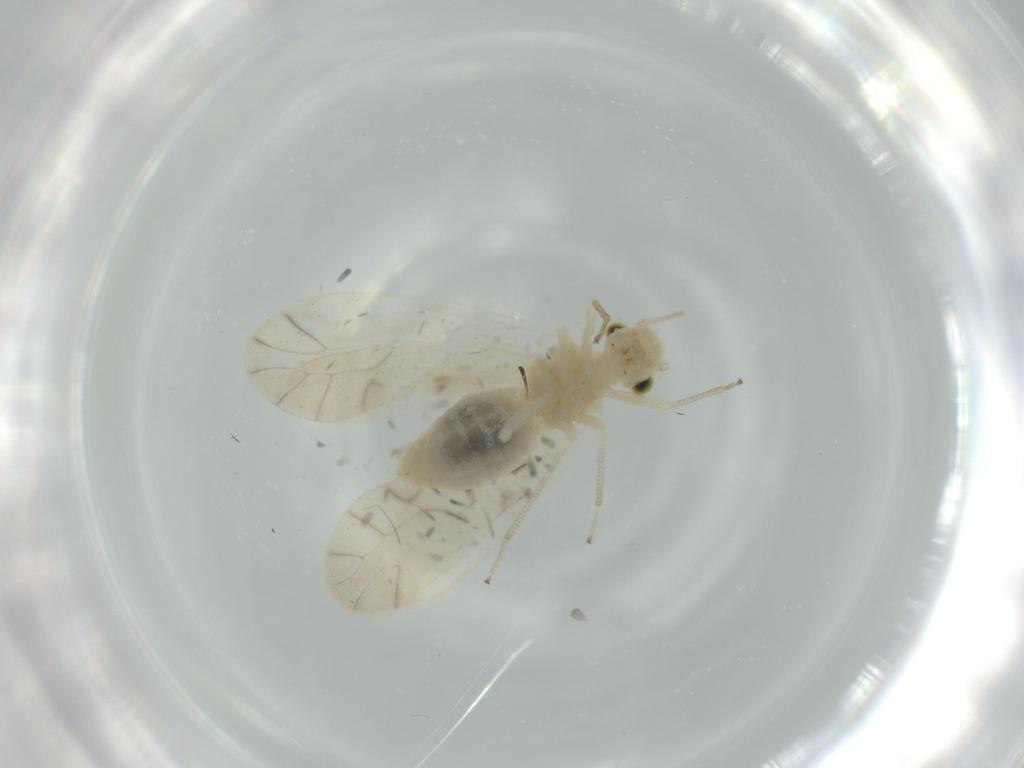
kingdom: Animalia
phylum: Arthropoda
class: Insecta
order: Psocodea
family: Caeciliusidae
